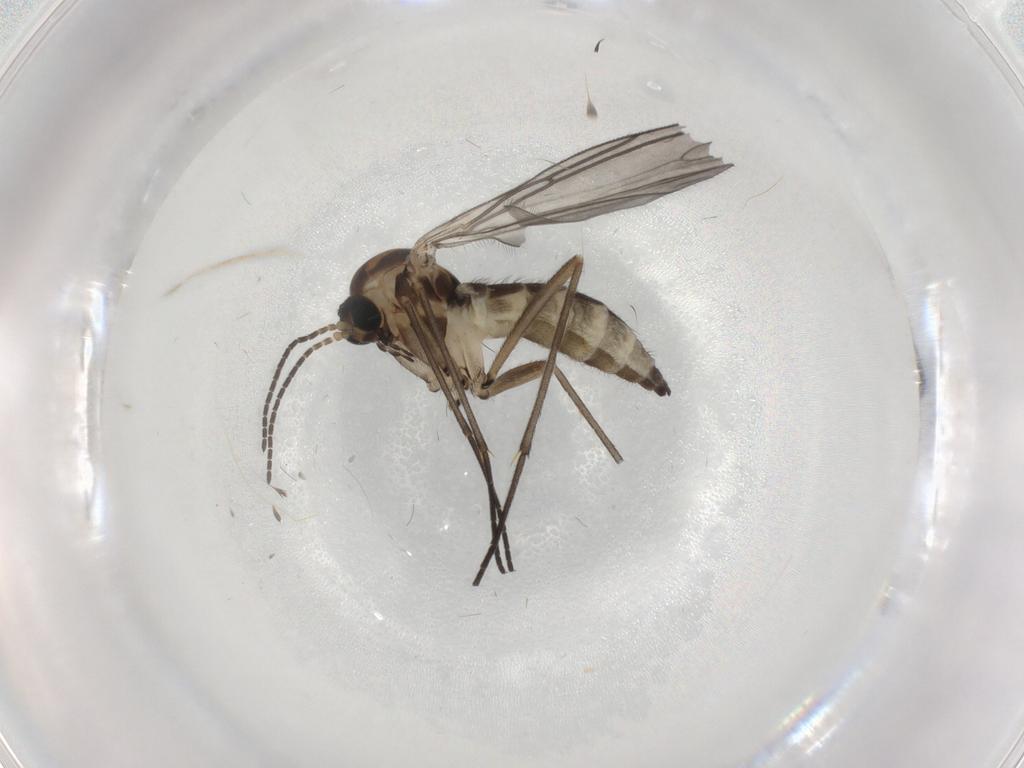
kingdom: Animalia
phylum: Arthropoda
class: Insecta
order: Diptera
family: Sciaridae
